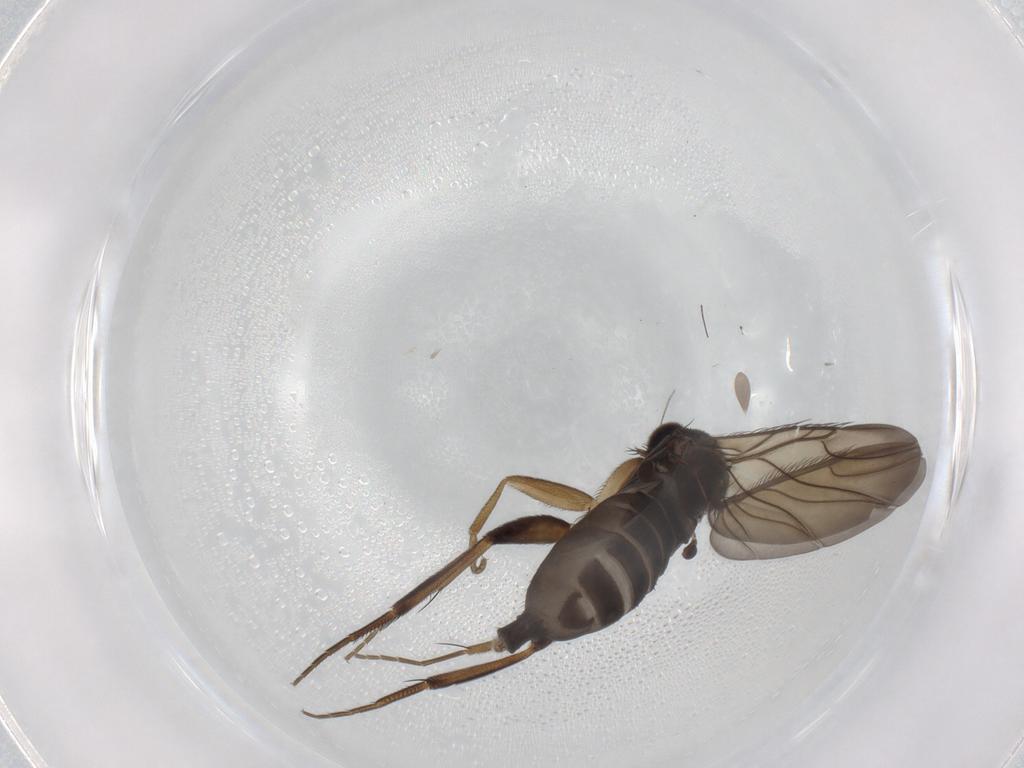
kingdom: Animalia
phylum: Arthropoda
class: Insecta
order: Diptera
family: Phoridae
